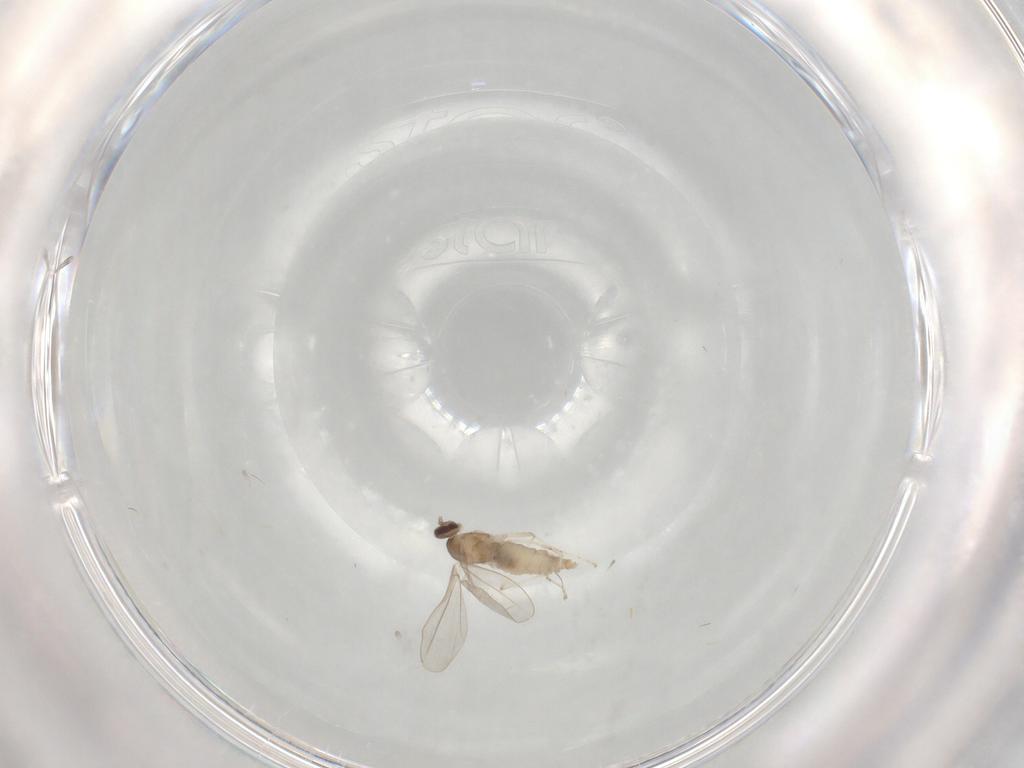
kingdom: Animalia
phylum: Arthropoda
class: Insecta
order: Diptera
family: Cecidomyiidae
